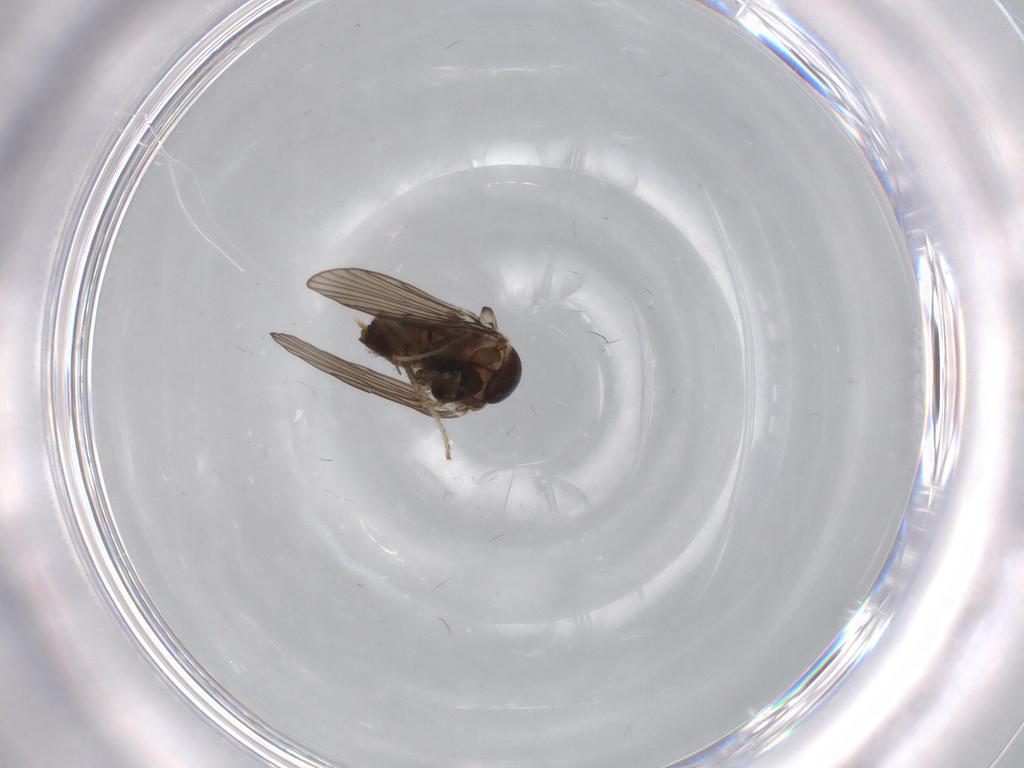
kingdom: Animalia
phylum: Arthropoda
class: Insecta
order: Diptera
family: Psychodidae
